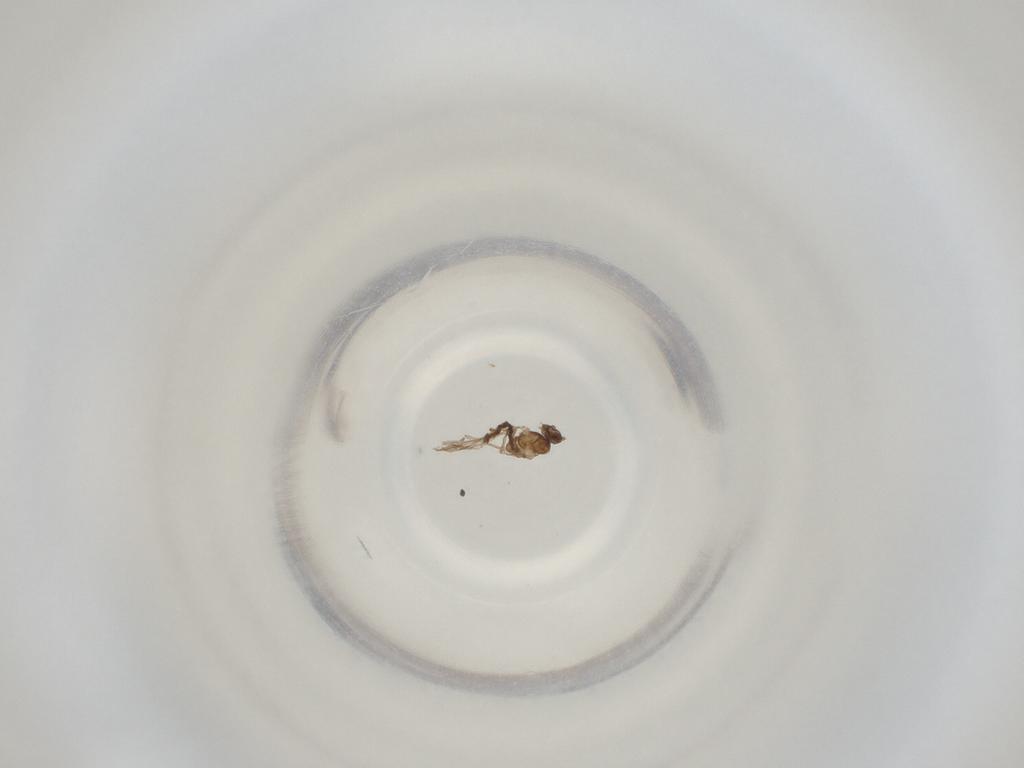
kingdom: Animalia
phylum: Arthropoda
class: Insecta
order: Diptera
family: Cecidomyiidae
